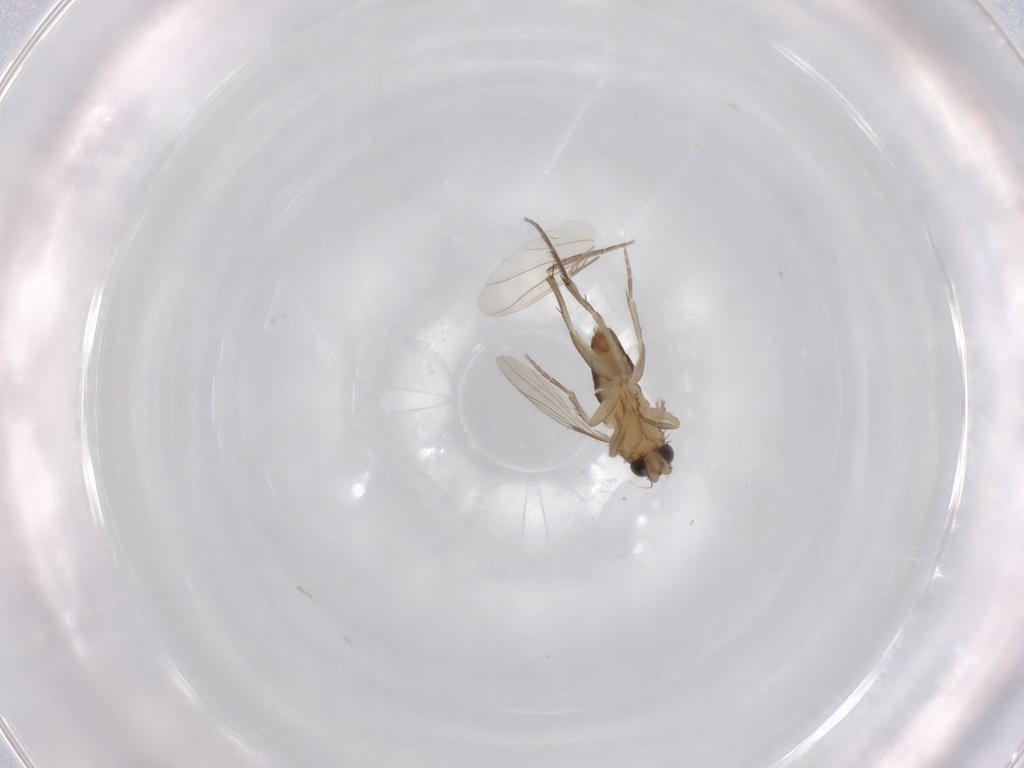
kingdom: Animalia
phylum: Arthropoda
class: Insecta
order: Diptera
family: Phoridae
